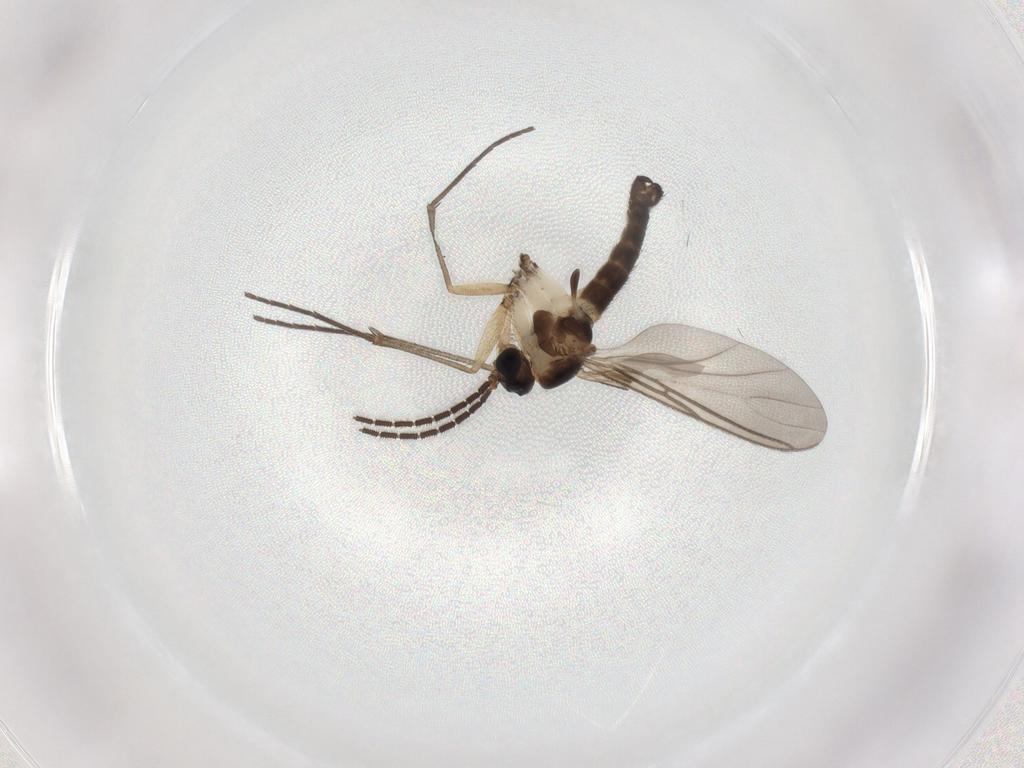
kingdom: Animalia
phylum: Arthropoda
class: Insecta
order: Diptera
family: Sciaridae
